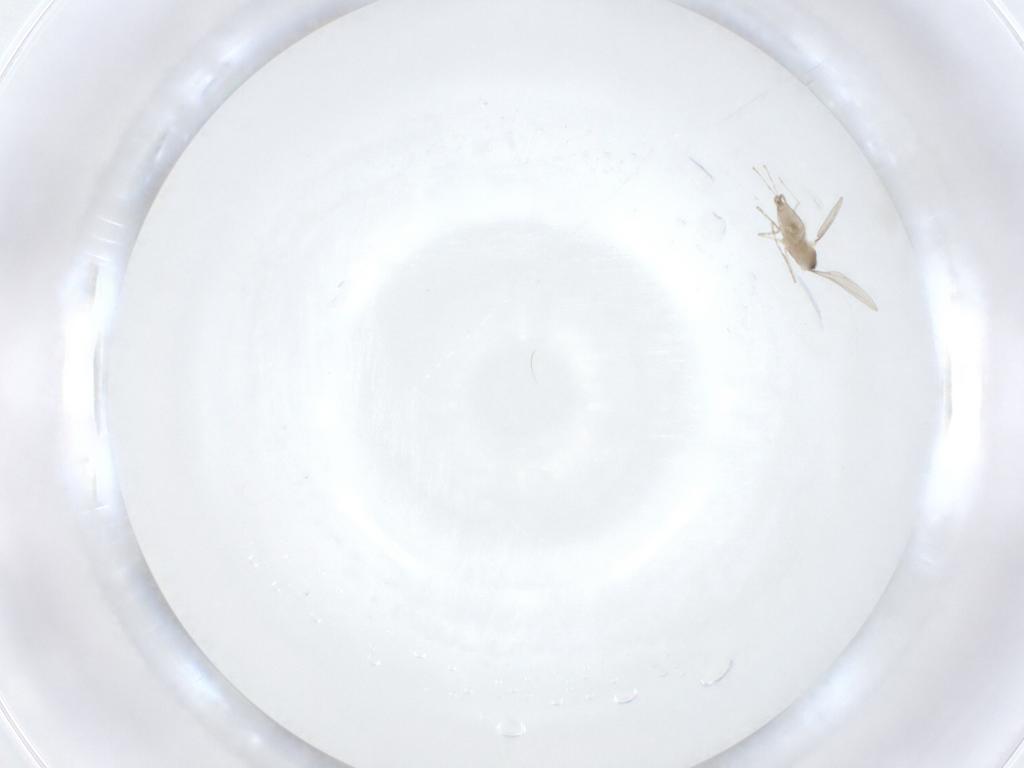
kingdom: Animalia
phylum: Arthropoda
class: Insecta
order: Diptera
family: Cecidomyiidae
